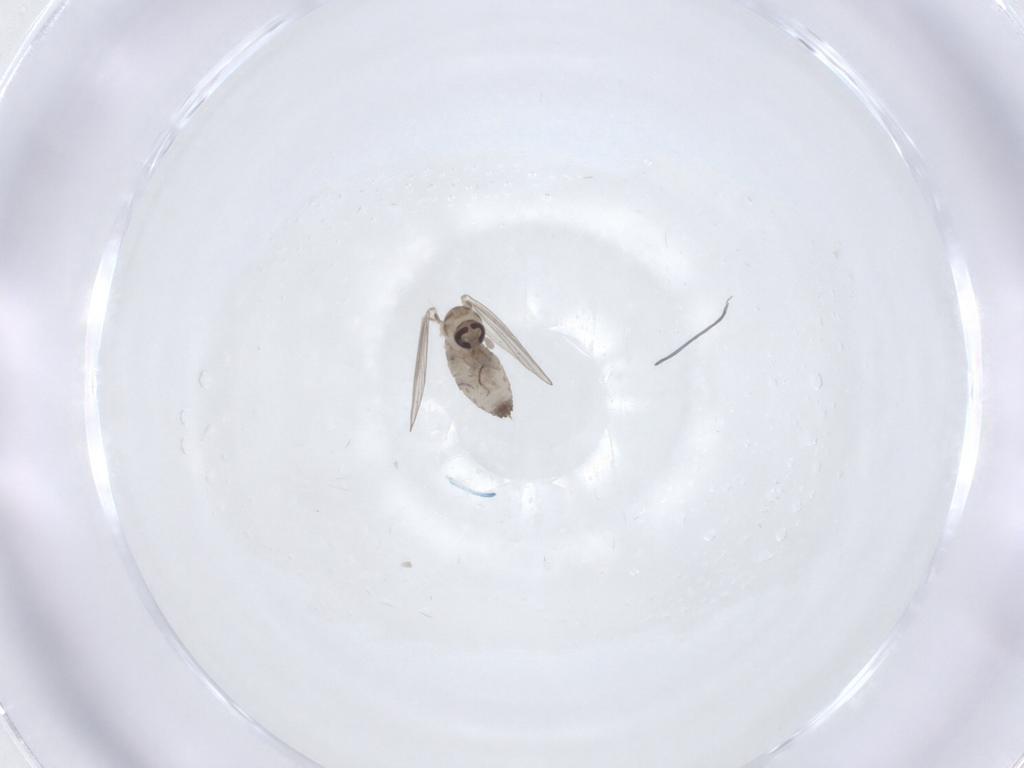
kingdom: Animalia
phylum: Arthropoda
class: Insecta
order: Diptera
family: Psychodidae
